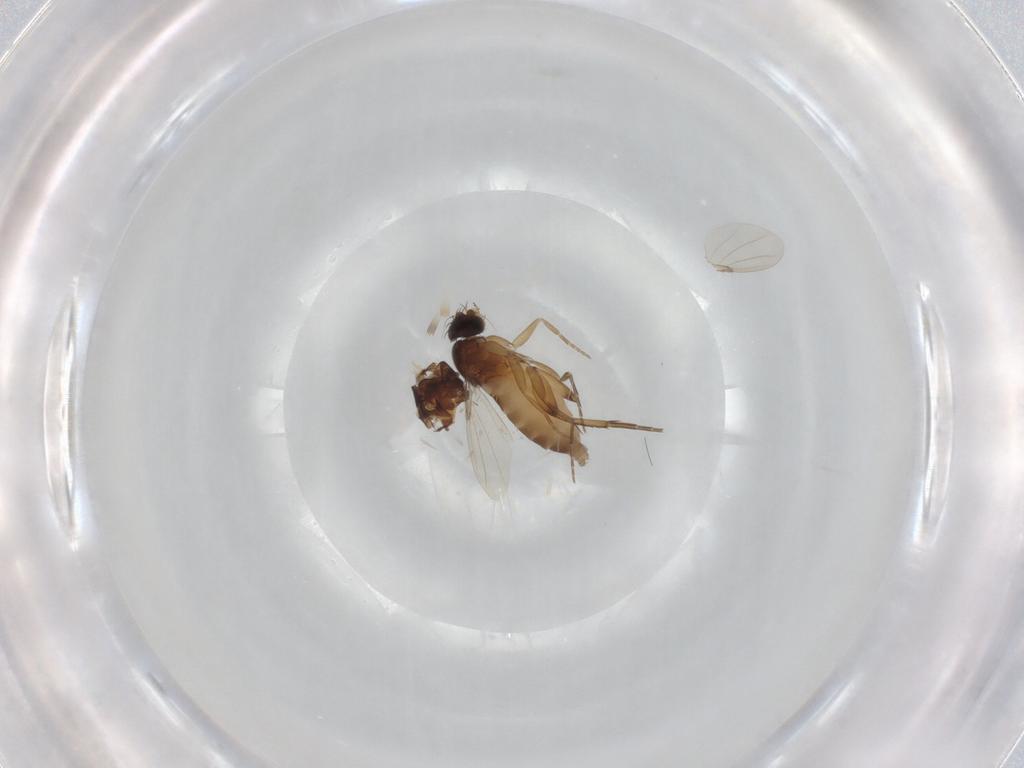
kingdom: Animalia
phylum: Arthropoda
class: Insecta
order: Diptera
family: Phoridae
